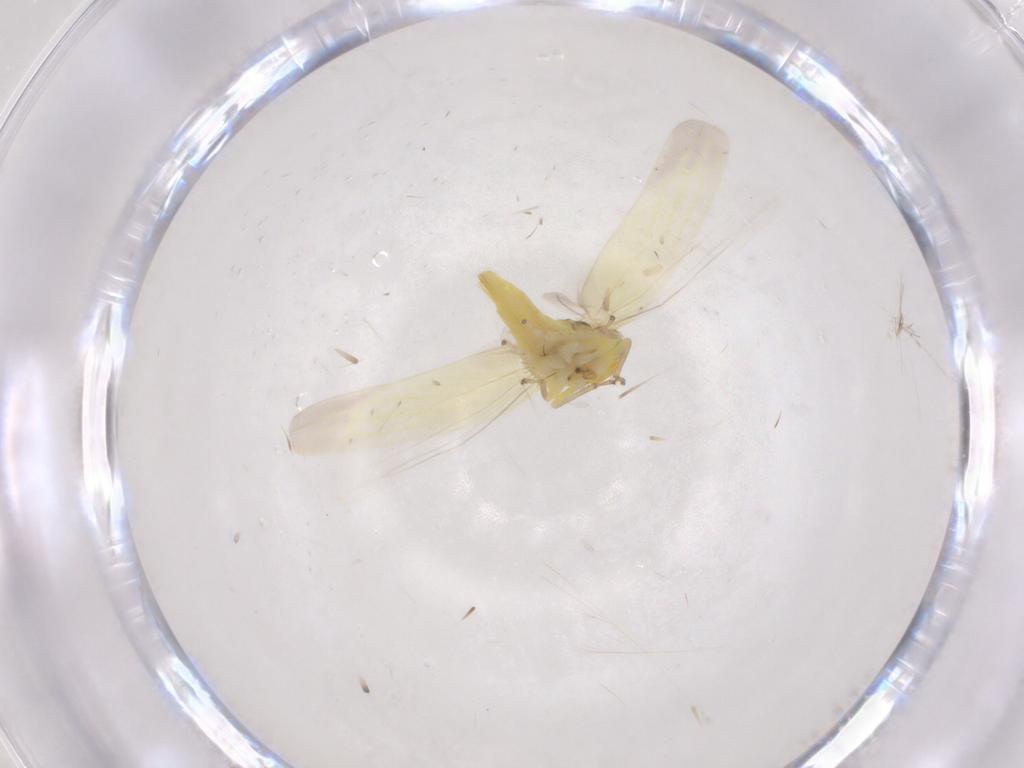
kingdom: Animalia
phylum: Arthropoda
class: Insecta
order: Hemiptera
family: Cicadellidae
